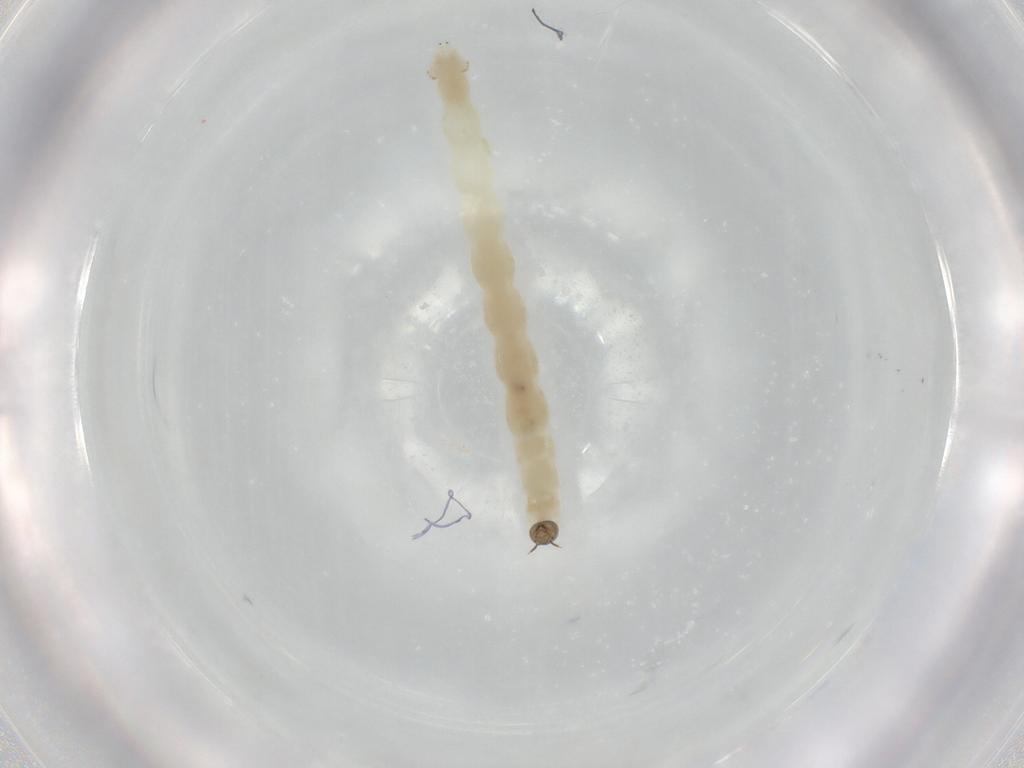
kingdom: Animalia
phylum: Arthropoda
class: Insecta
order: Diptera
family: Chironomidae
